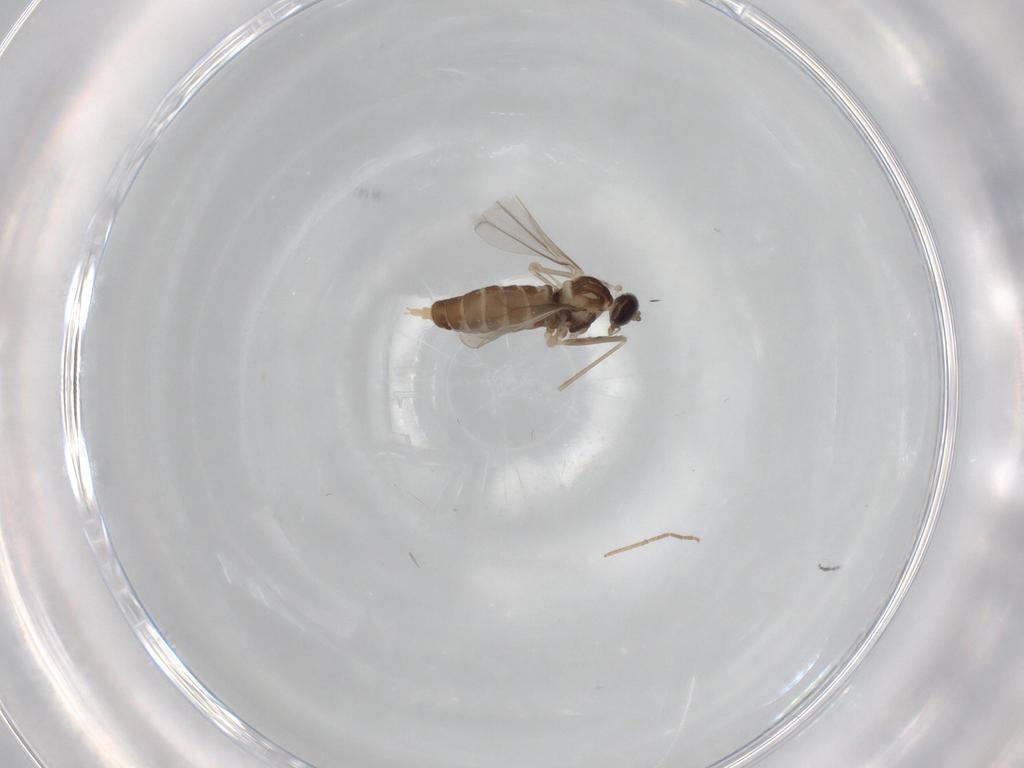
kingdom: Animalia
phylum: Arthropoda
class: Insecta
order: Diptera
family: Cecidomyiidae
